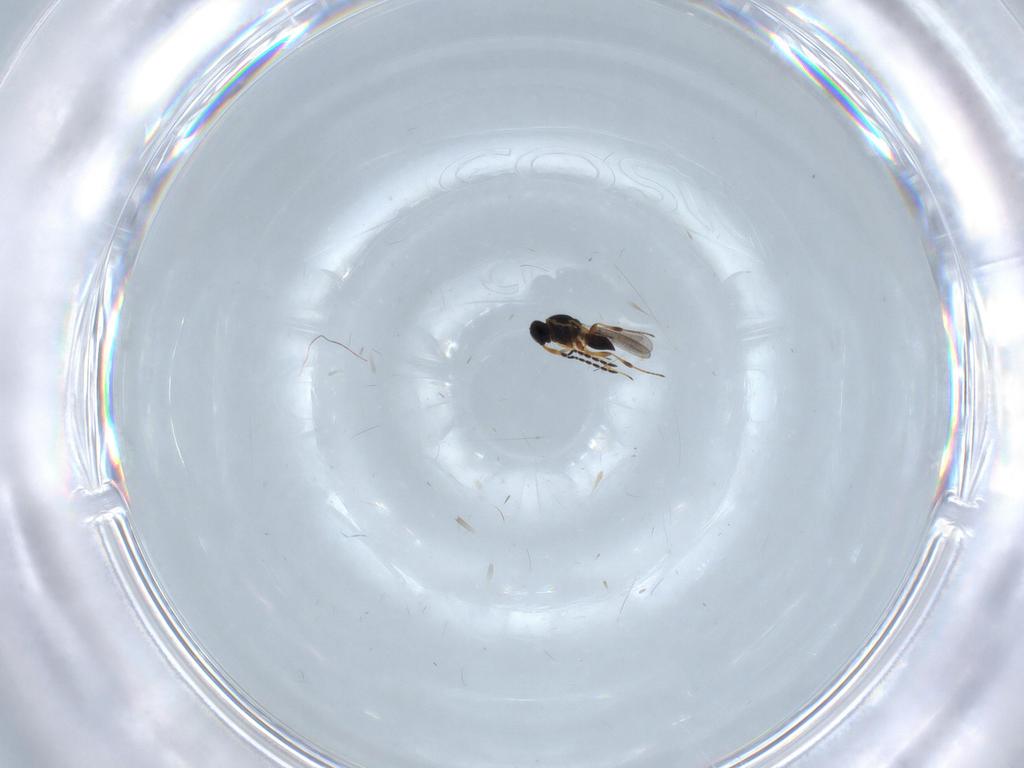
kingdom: Animalia
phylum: Arthropoda
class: Insecta
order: Hymenoptera
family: Platygastridae
